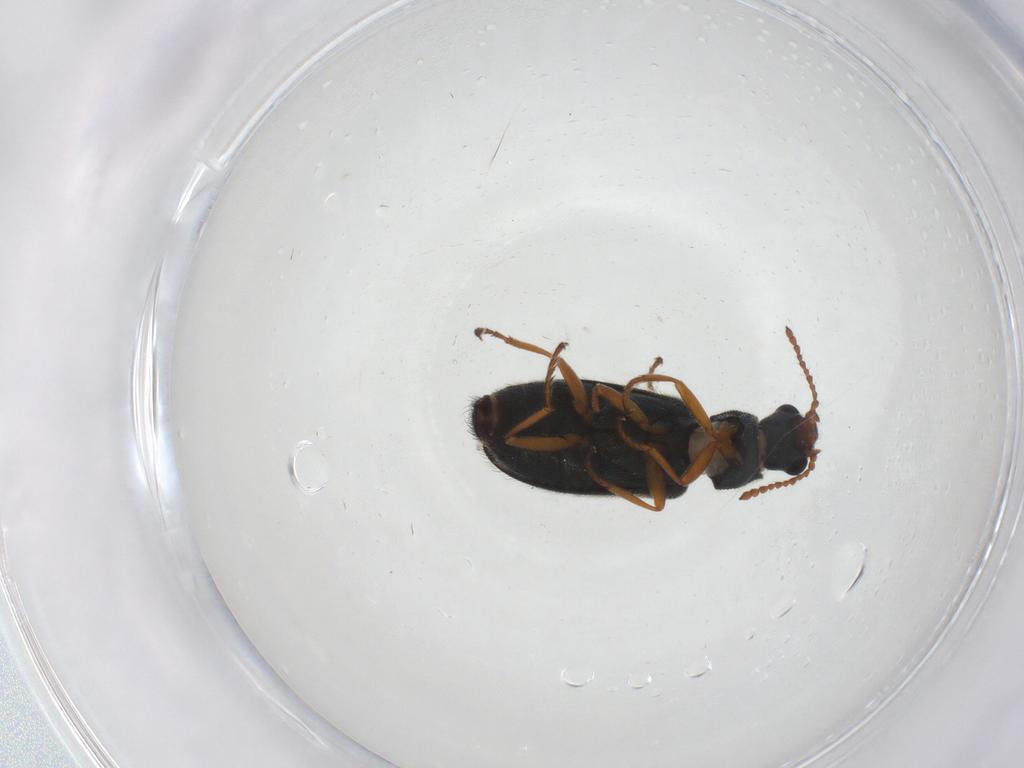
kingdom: Animalia
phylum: Arthropoda
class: Insecta
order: Coleoptera
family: Melyridae
